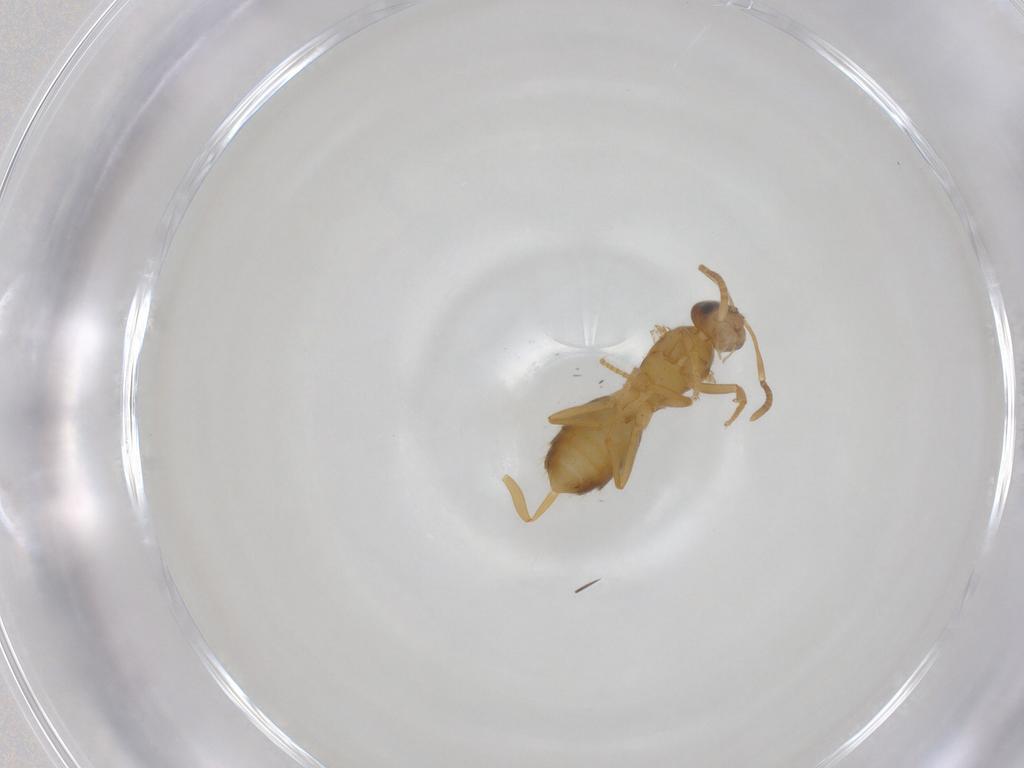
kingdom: Animalia
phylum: Arthropoda
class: Insecta
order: Hymenoptera
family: Formicidae
